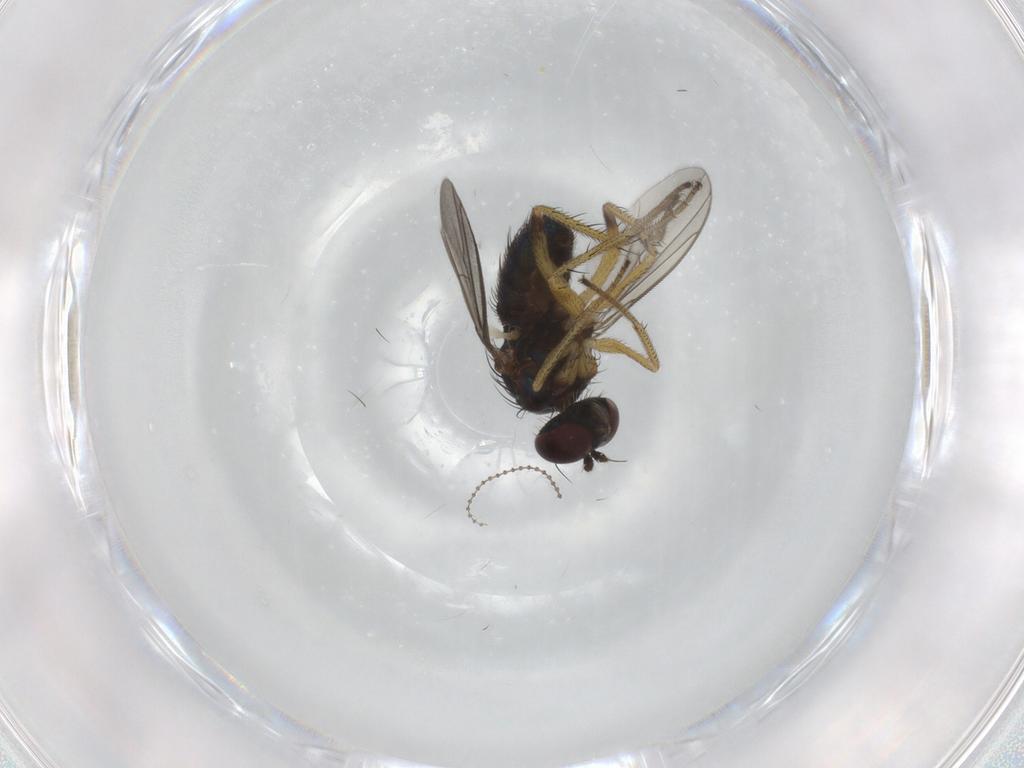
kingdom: Animalia
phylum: Arthropoda
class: Insecta
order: Diptera
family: Dolichopodidae
